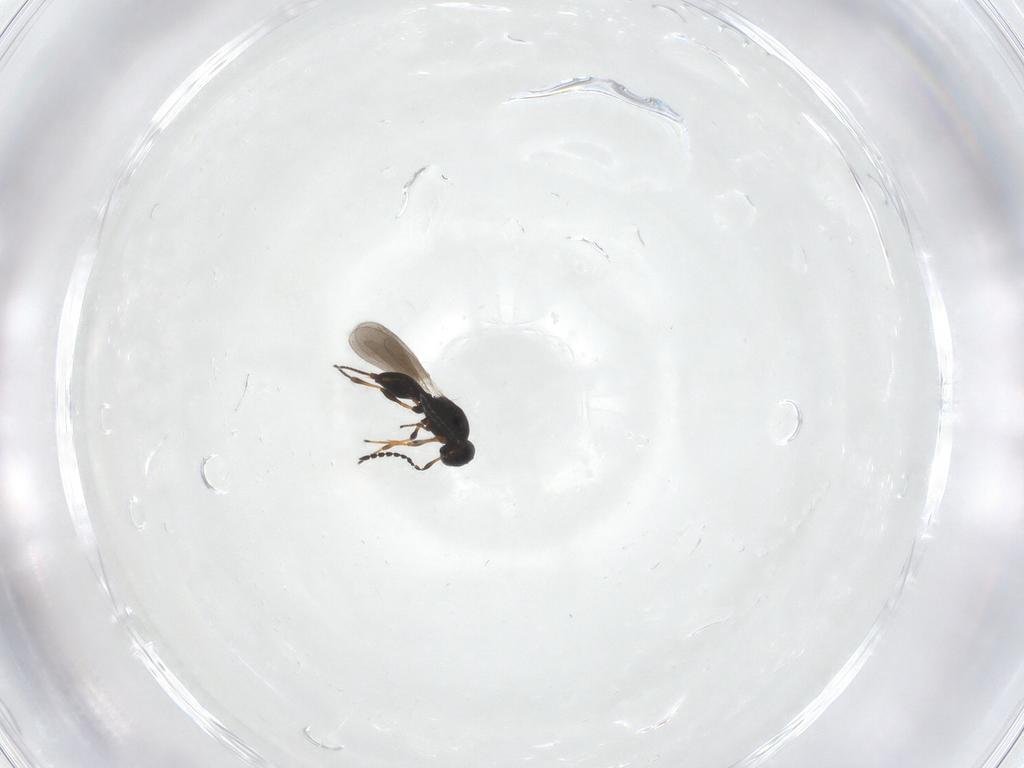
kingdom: Animalia
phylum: Arthropoda
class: Insecta
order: Hymenoptera
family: Platygastridae
